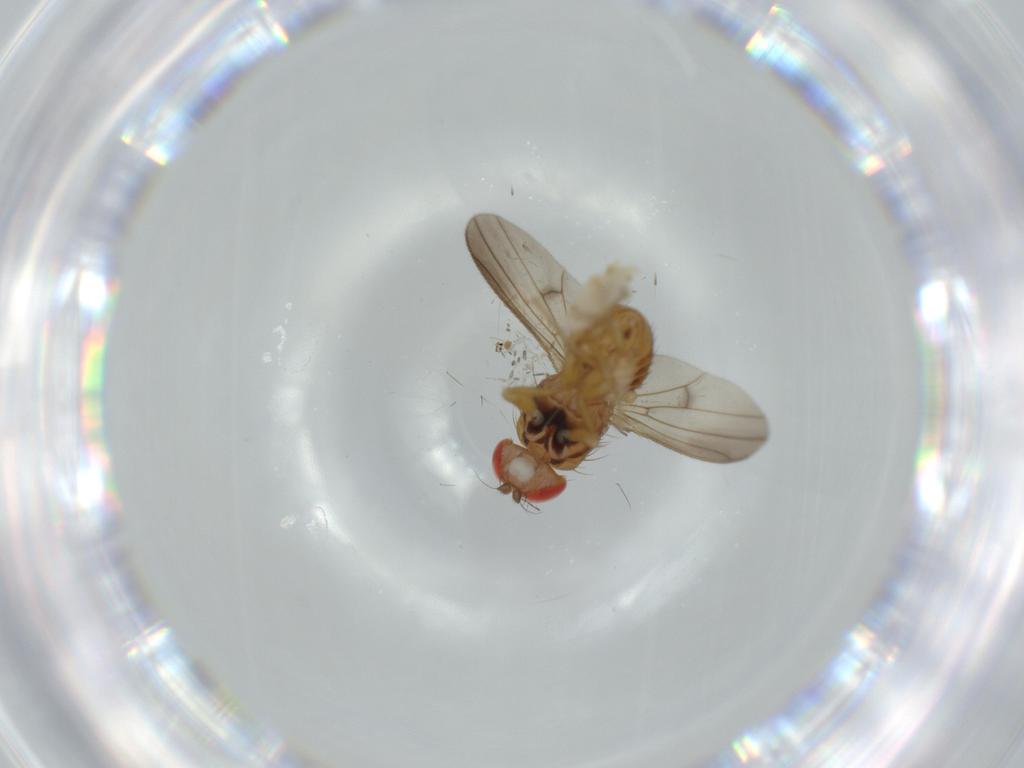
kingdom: Animalia
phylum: Arthropoda
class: Insecta
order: Diptera
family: Drosophilidae
